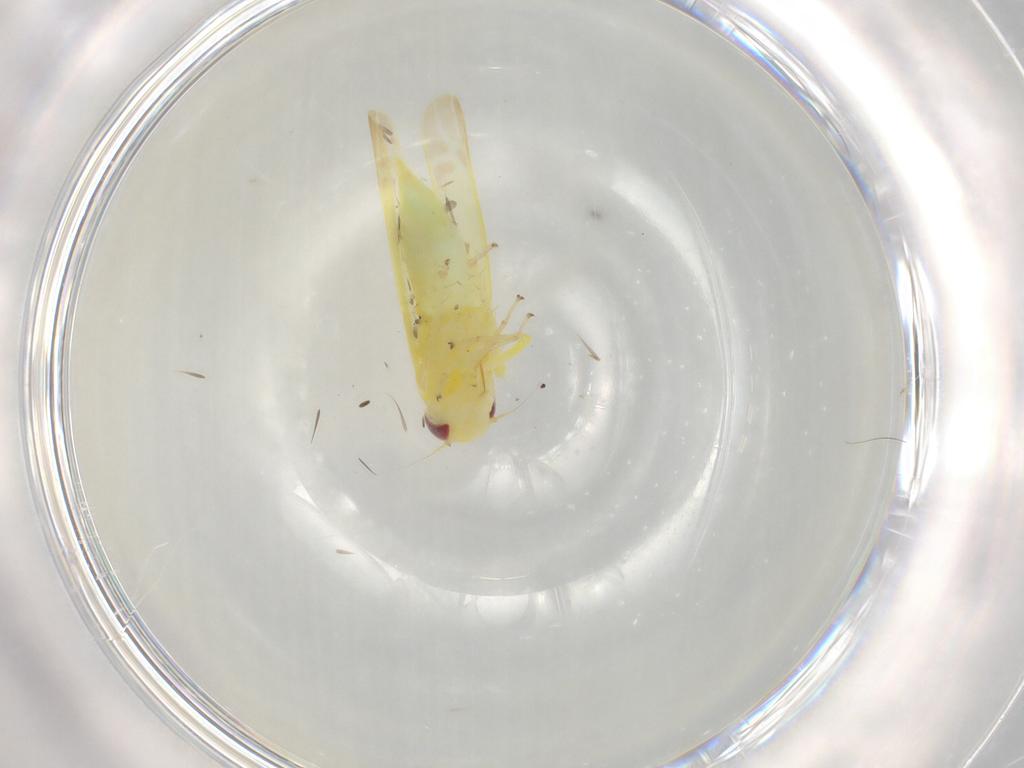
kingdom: Animalia
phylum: Arthropoda
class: Insecta
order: Hemiptera
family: Cicadellidae
